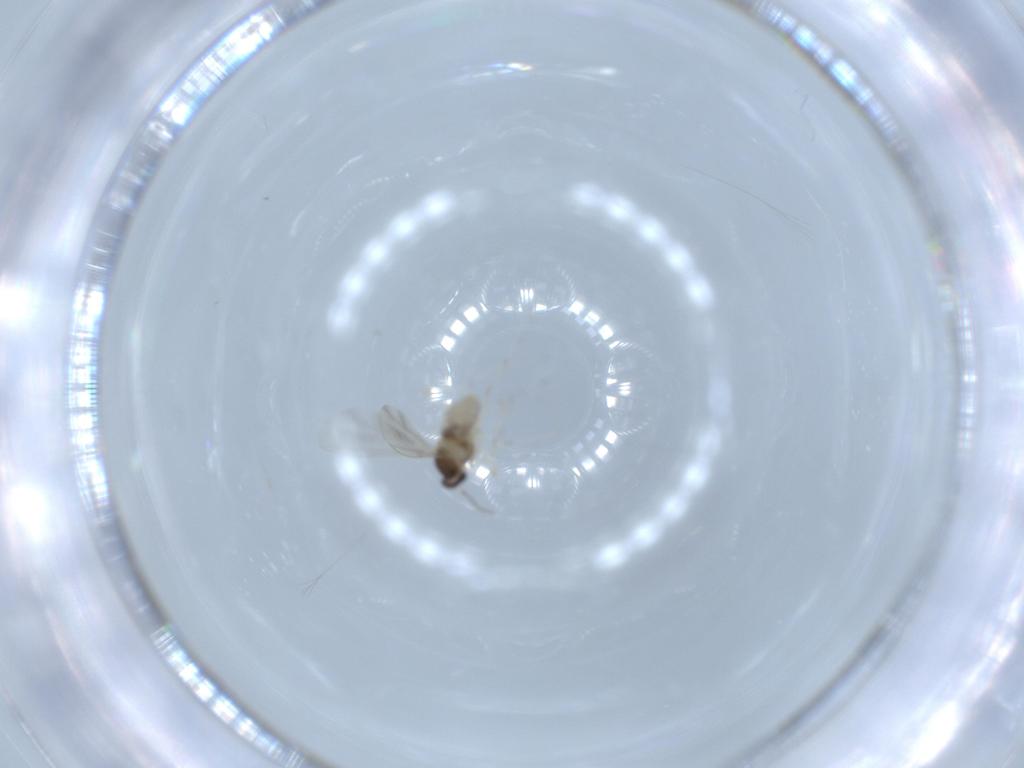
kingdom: Animalia
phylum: Arthropoda
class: Insecta
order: Diptera
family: Cecidomyiidae
